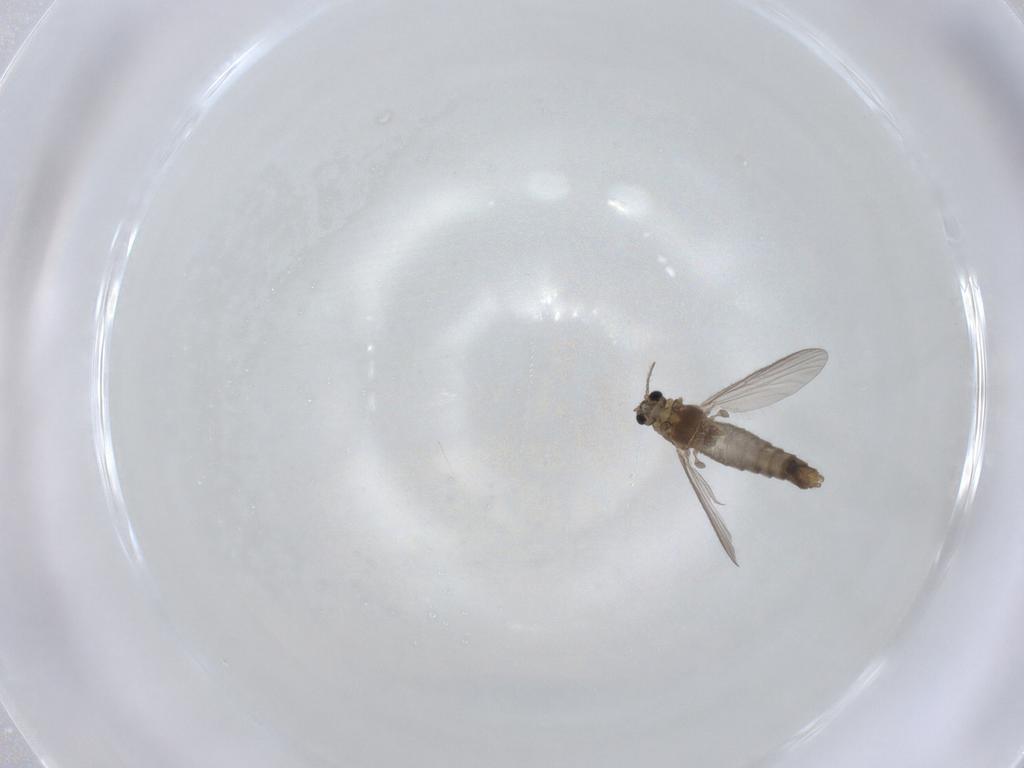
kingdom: Animalia
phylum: Arthropoda
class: Insecta
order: Diptera
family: Chironomidae
